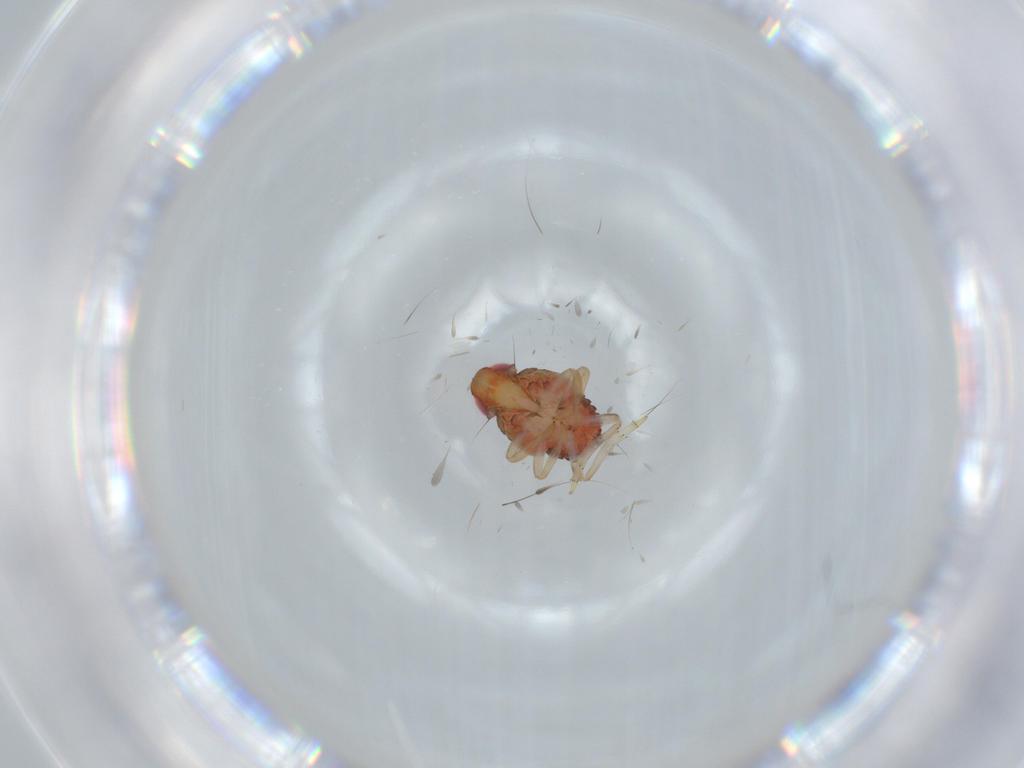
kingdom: Animalia
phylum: Arthropoda
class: Insecta
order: Hemiptera
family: Issidae
